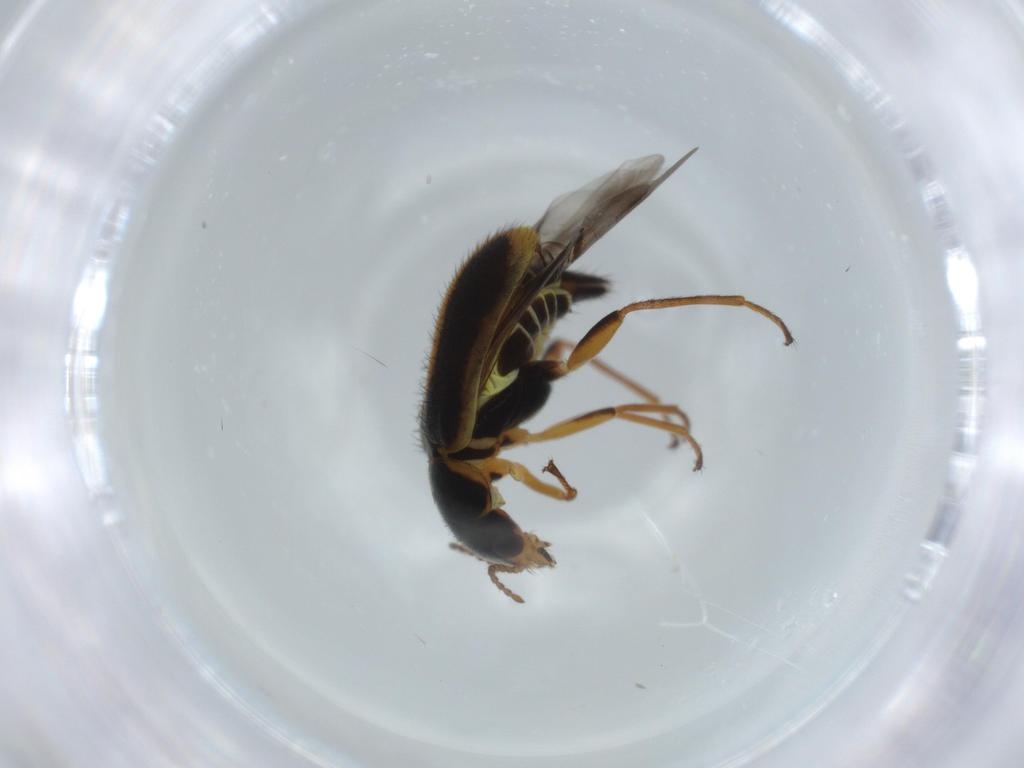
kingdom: Animalia
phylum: Arthropoda
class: Insecta
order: Coleoptera
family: Melyridae
